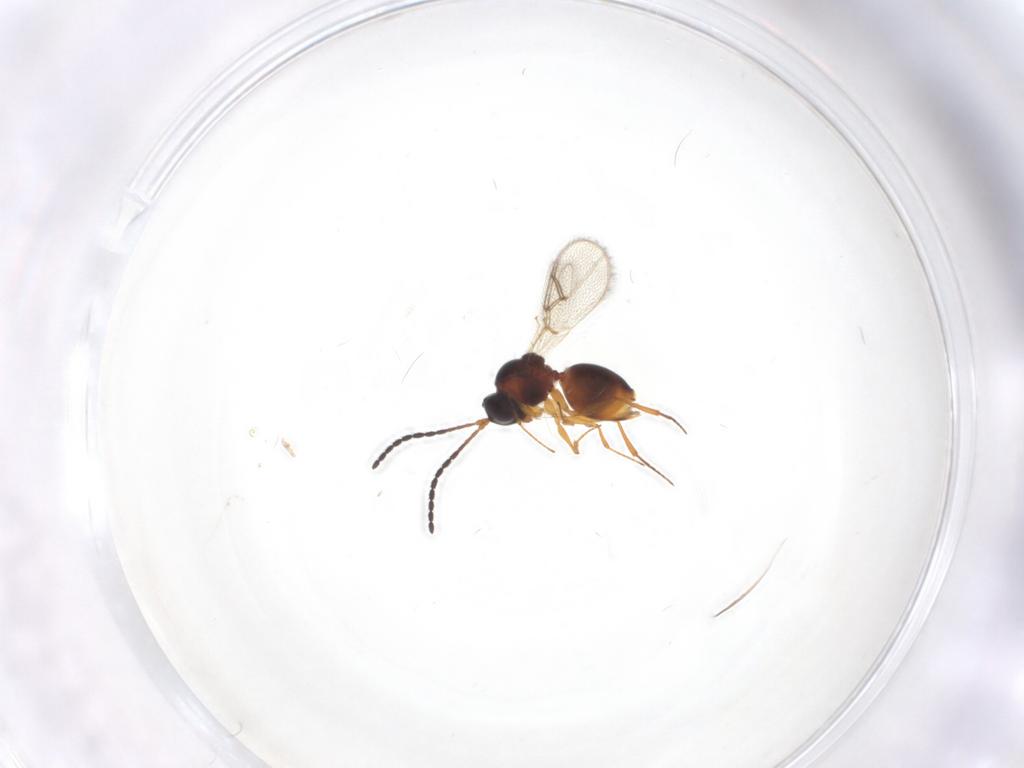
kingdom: Animalia
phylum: Arthropoda
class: Insecta
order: Hymenoptera
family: Figitidae
